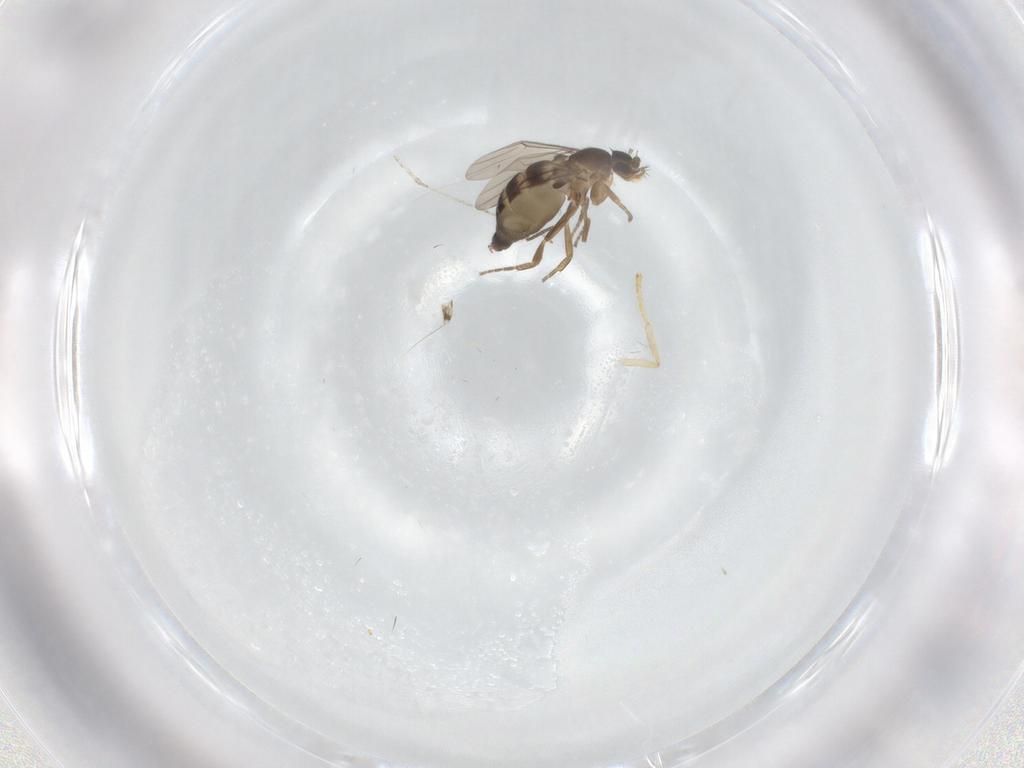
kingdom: Animalia
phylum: Arthropoda
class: Insecta
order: Diptera
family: Phoridae
